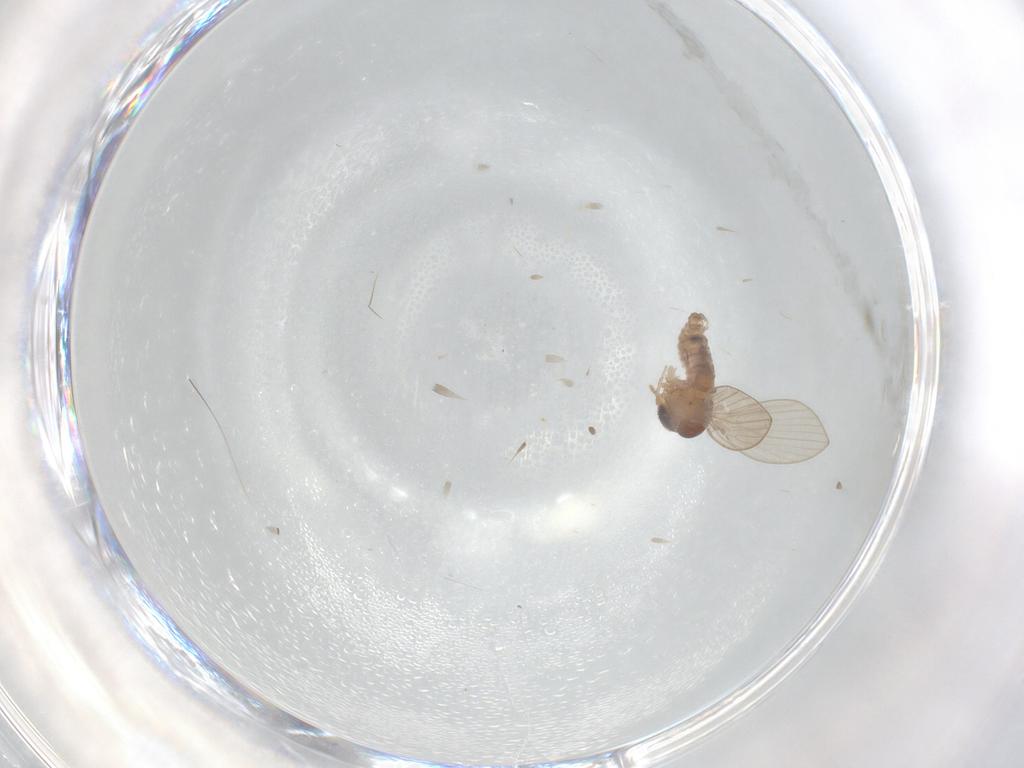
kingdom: Animalia
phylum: Arthropoda
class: Insecta
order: Diptera
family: Psychodidae
